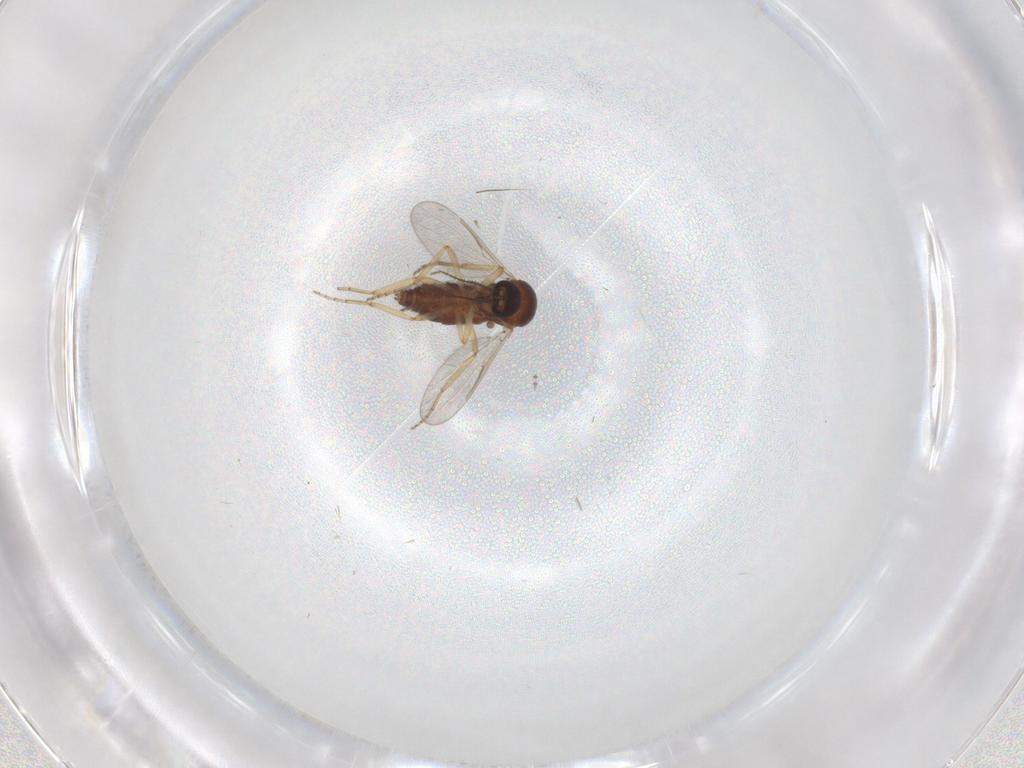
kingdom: Animalia
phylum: Arthropoda
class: Insecta
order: Diptera
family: Ceratopogonidae
